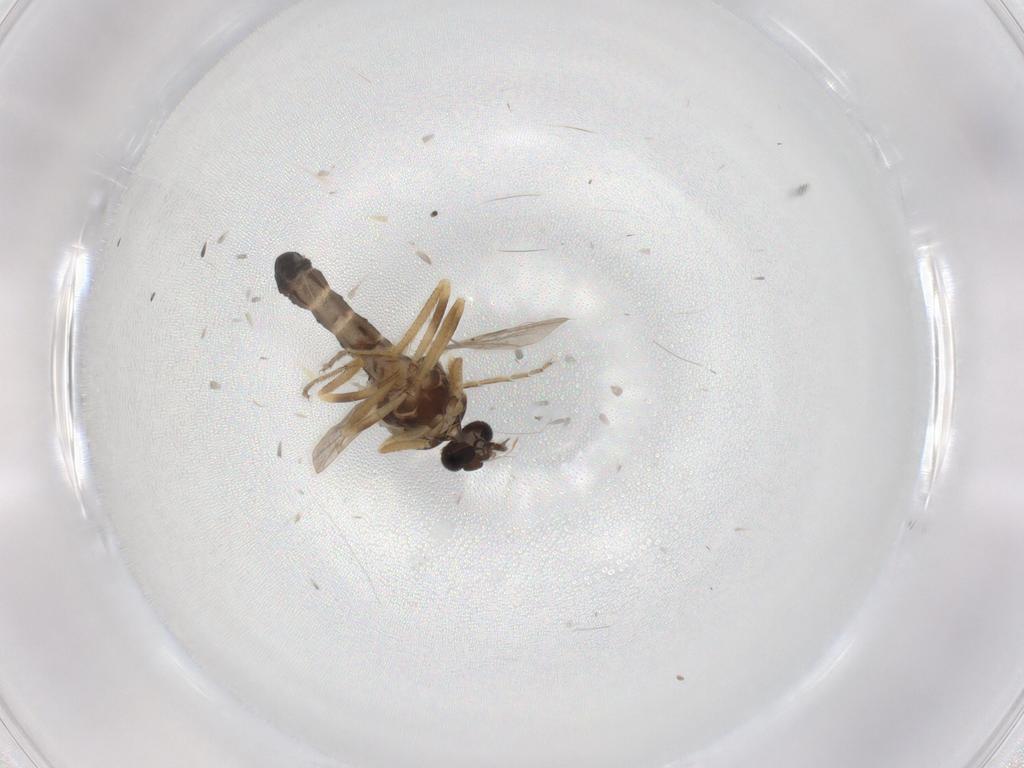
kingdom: Animalia
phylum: Arthropoda
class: Insecta
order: Diptera
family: Ceratopogonidae
